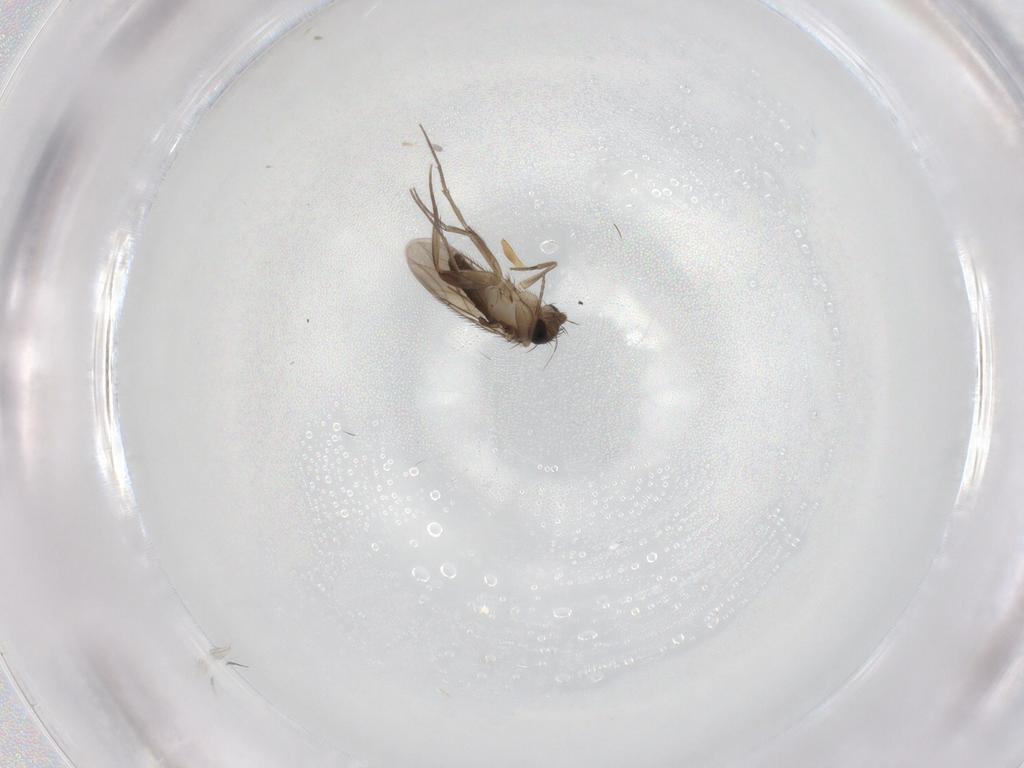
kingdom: Animalia
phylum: Arthropoda
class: Insecta
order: Diptera
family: Phoridae
